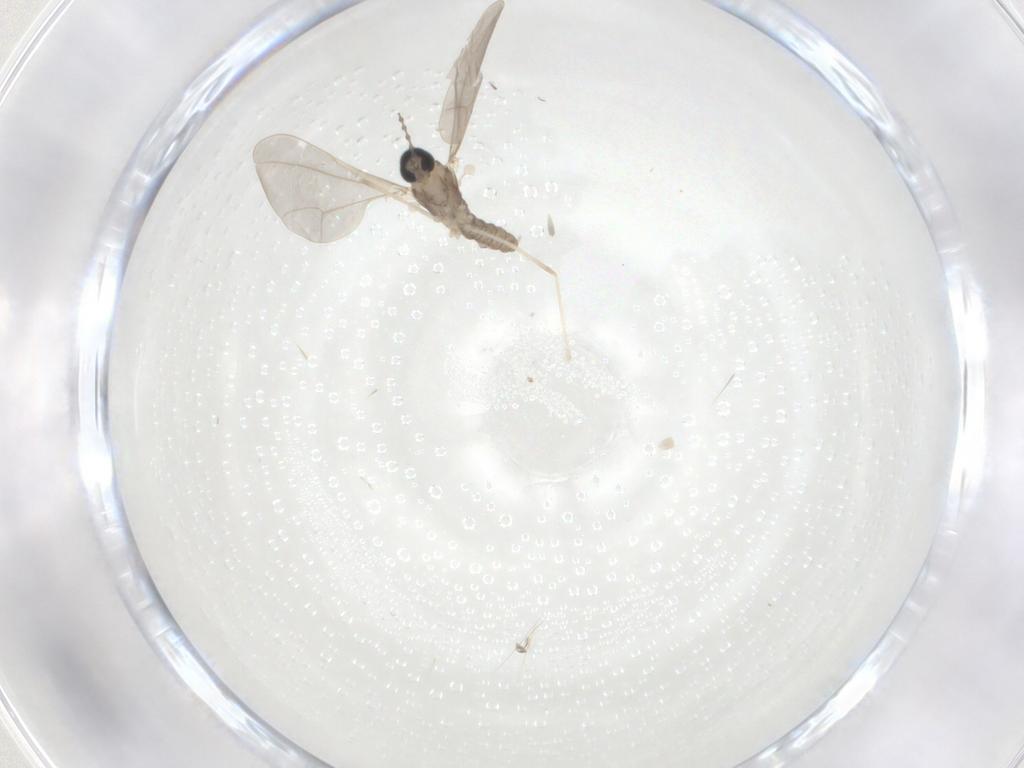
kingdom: Animalia
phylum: Arthropoda
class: Insecta
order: Diptera
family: Cecidomyiidae
